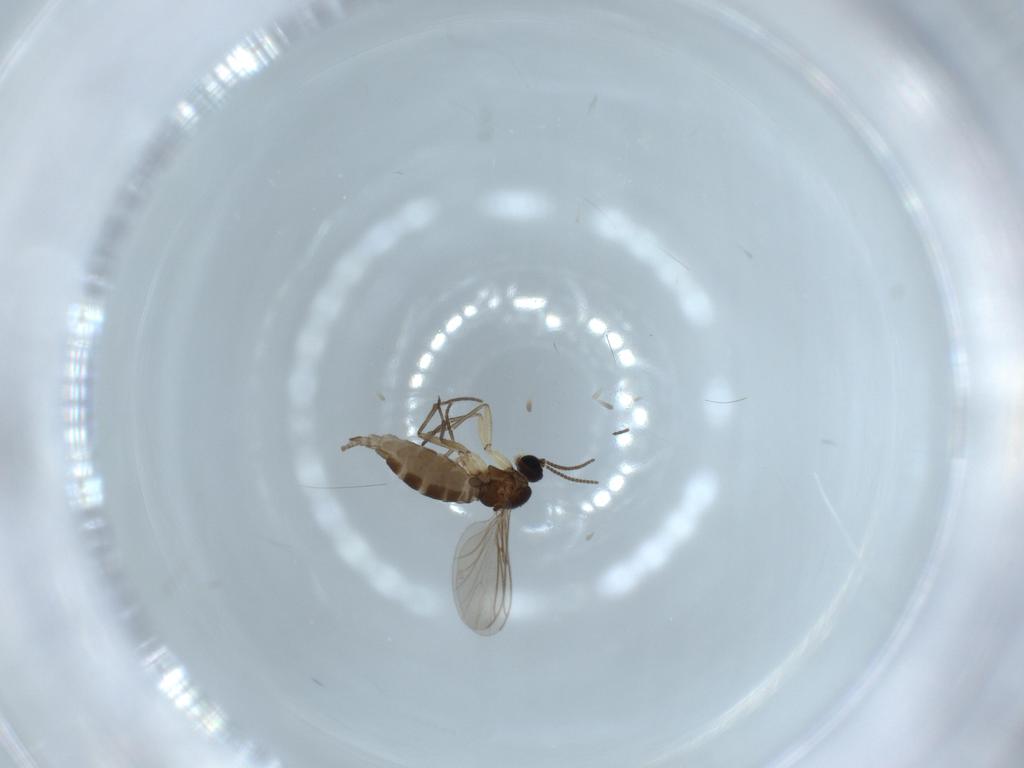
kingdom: Animalia
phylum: Arthropoda
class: Insecta
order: Diptera
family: Sciaridae
